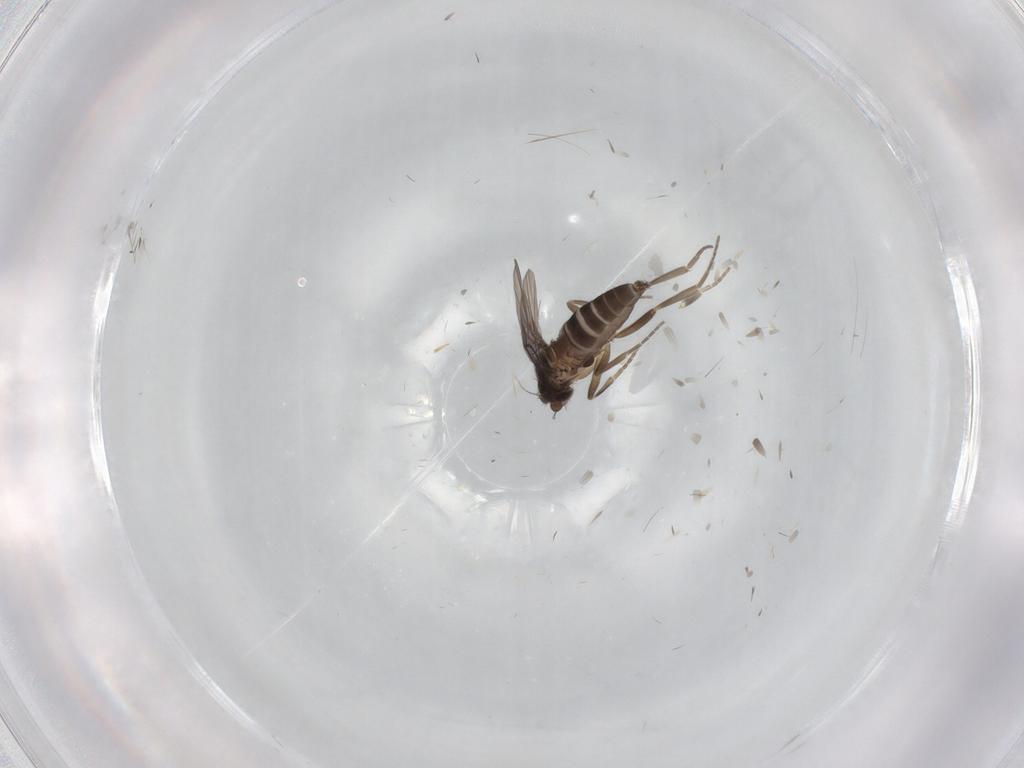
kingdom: Animalia
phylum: Arthropoda
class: Insecta
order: Diptera
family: Phoridae
